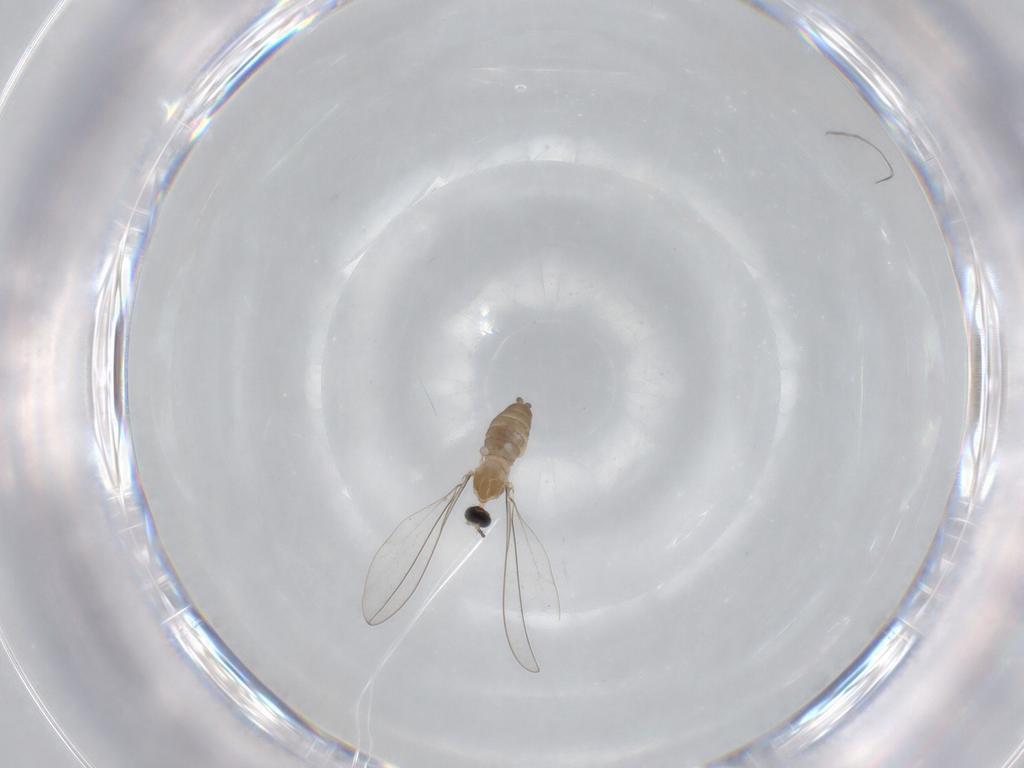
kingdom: Animalia
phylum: Arthropoda
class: Insecta
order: Diptera
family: Cecidomyiidae
